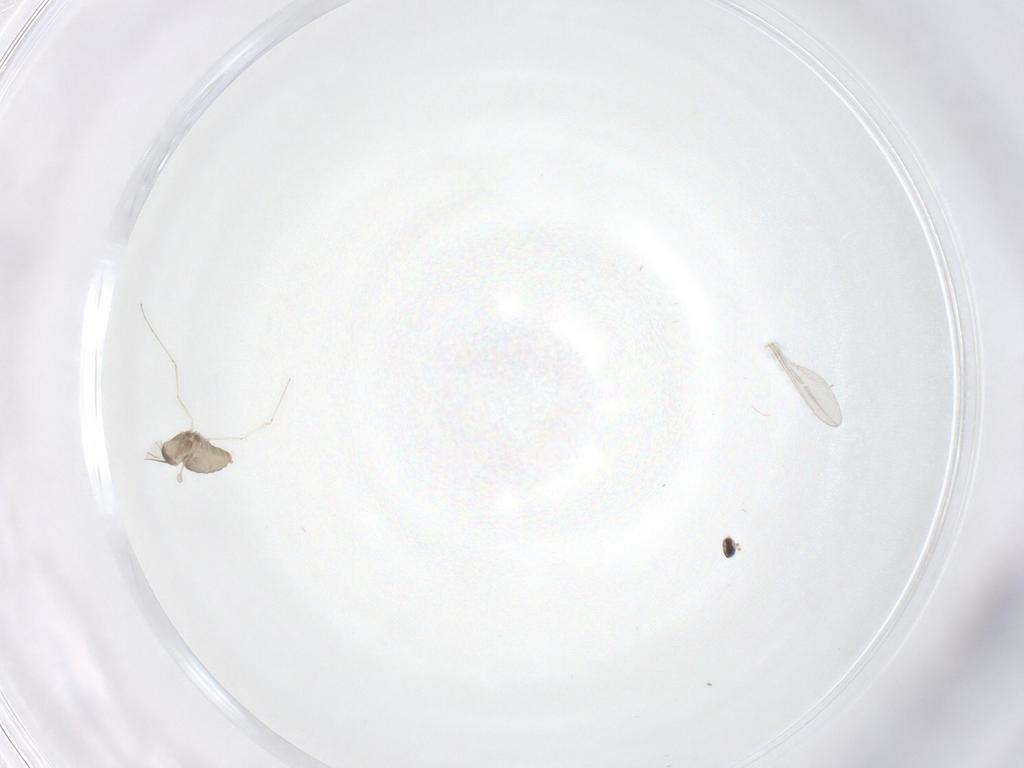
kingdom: Animalia
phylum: Arthropoda
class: Insecta
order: Diptera
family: Cecidomyiidae
